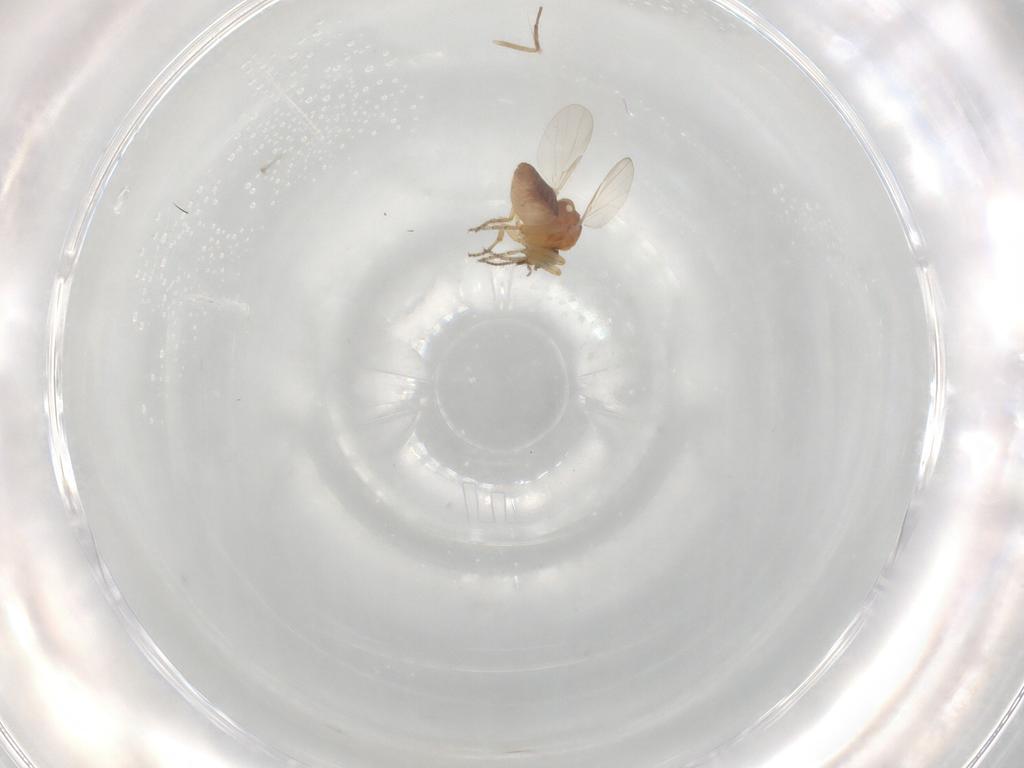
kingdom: Animalia
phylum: Arthropoda
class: Insecta
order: Diptera
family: Ceratopogonidae
